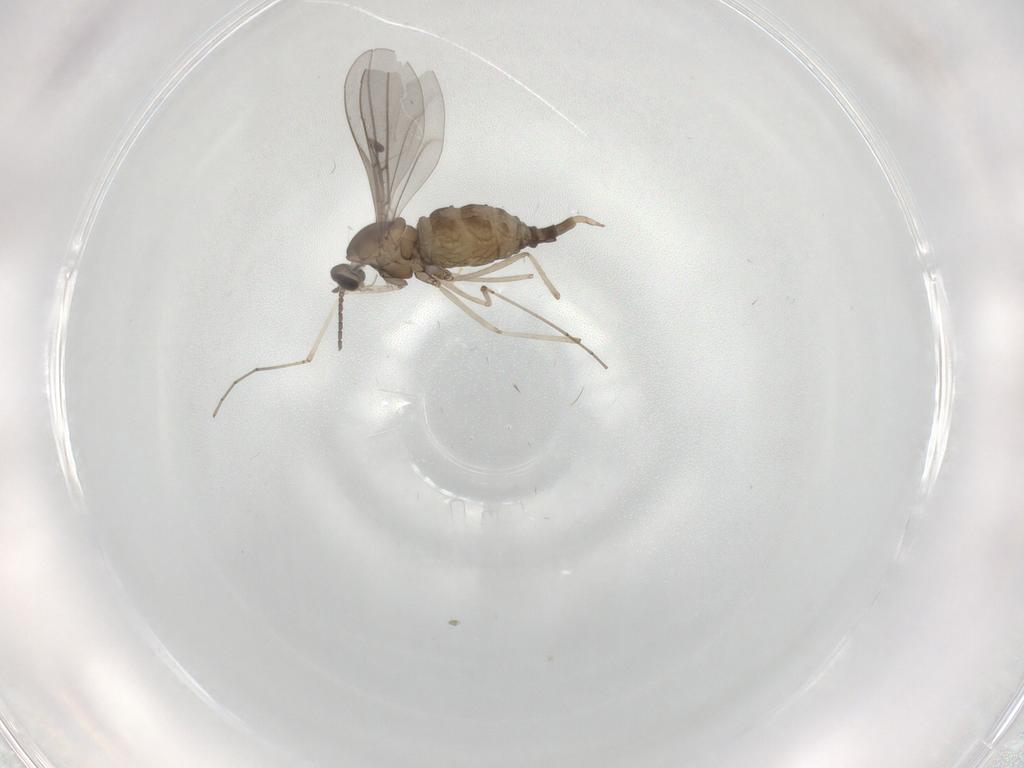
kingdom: Animalia
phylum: Arthropoda
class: Insecta
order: Diptera
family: Cecidomyiidae
